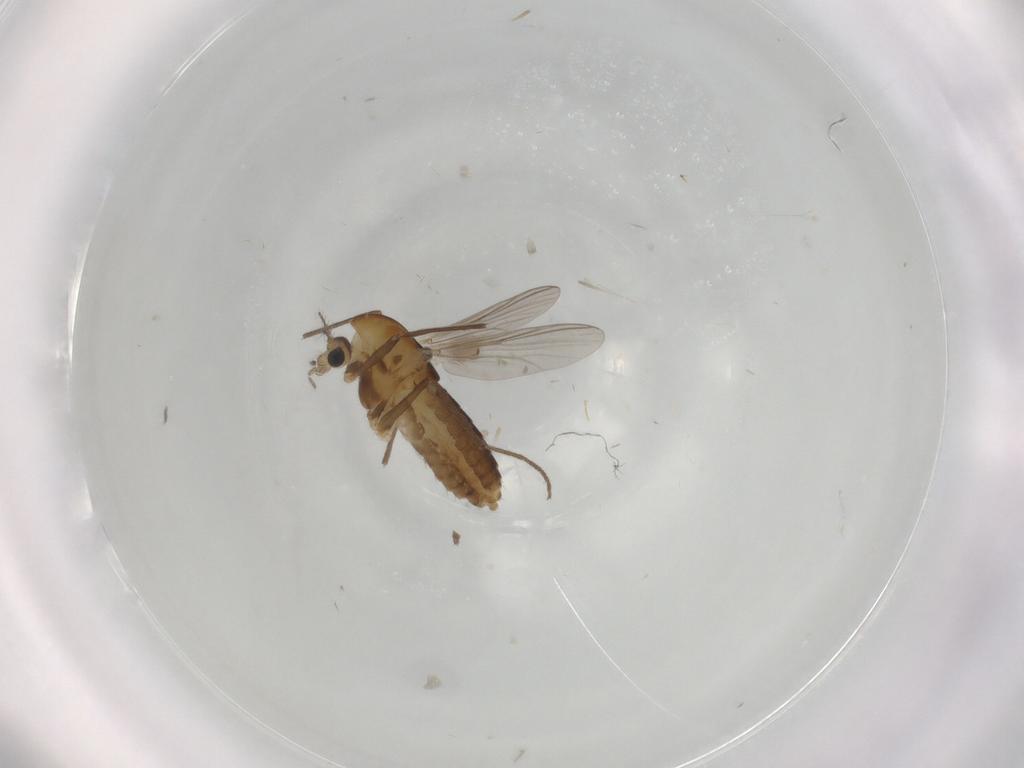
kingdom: Animalia
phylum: Arthropoda
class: Insecta
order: Diptera
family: Chironomidae
